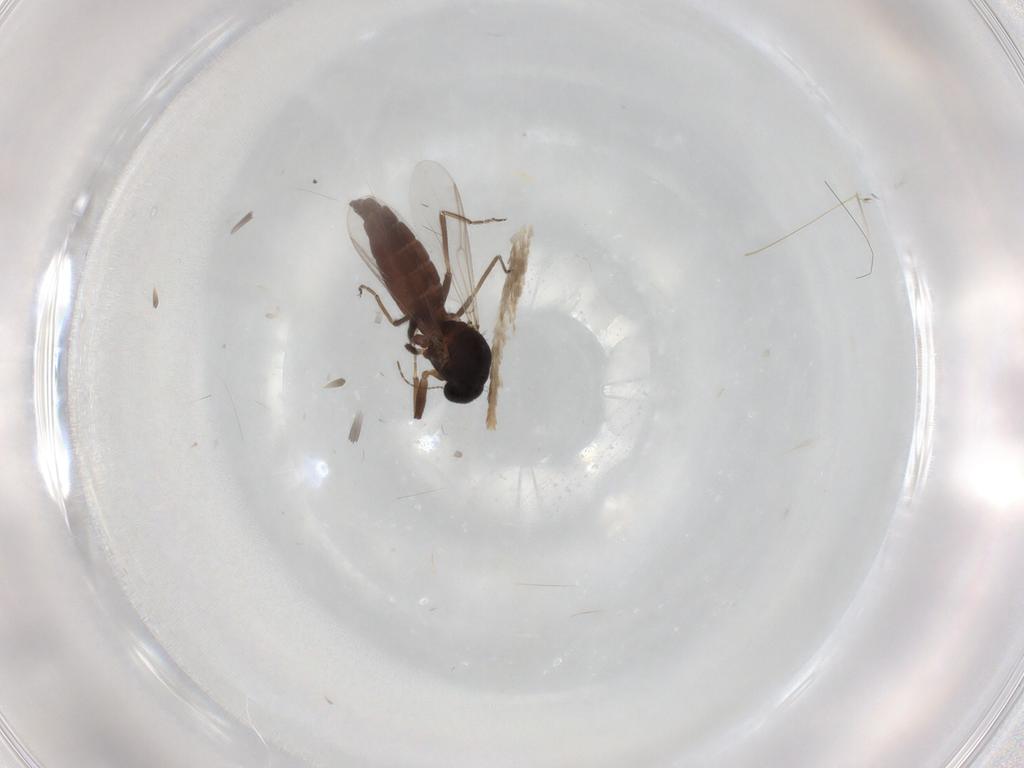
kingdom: Animalia
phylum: Arthropoda
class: Insecta
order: Diptera
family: Ceratopogonidae
